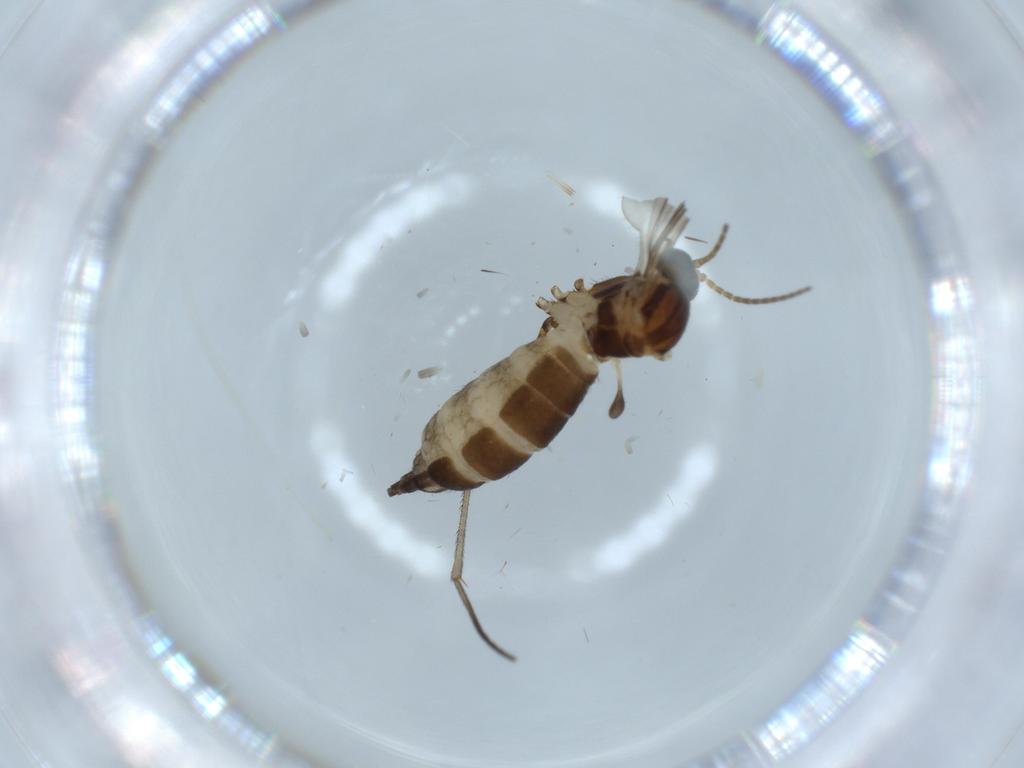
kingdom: Animalia
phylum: Arthropoda
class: Insecta
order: Diptera
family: Sciaridae
